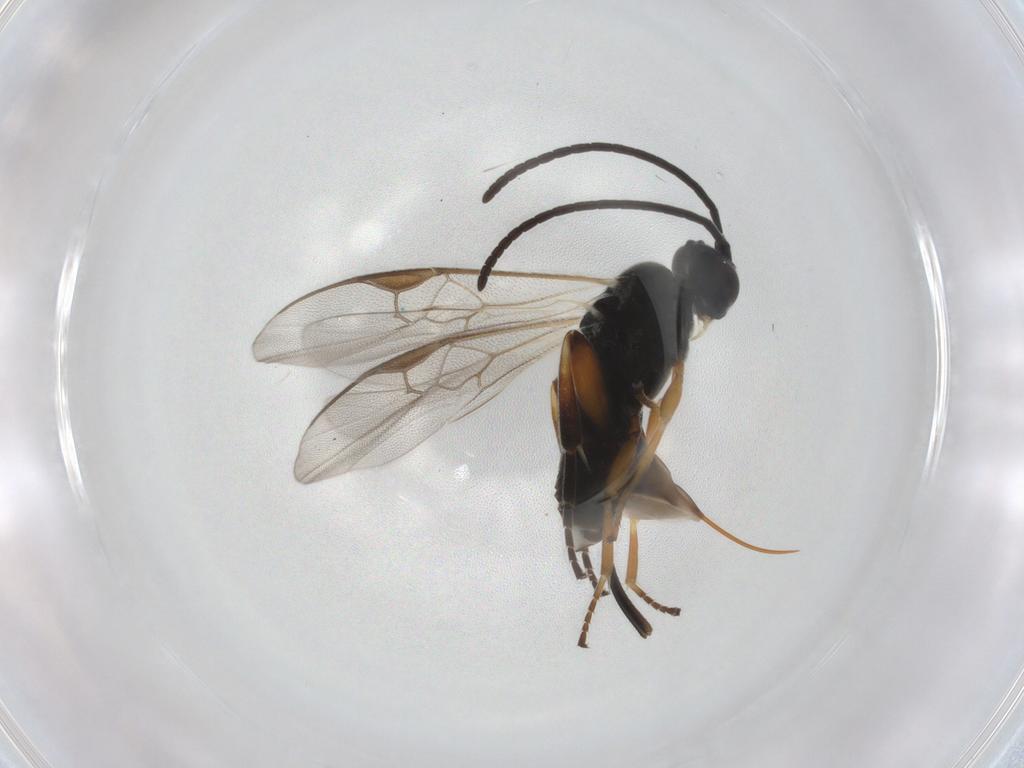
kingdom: Animalia
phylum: Arthropoda
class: Insecta
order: Hymenoptera
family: Braconidae
